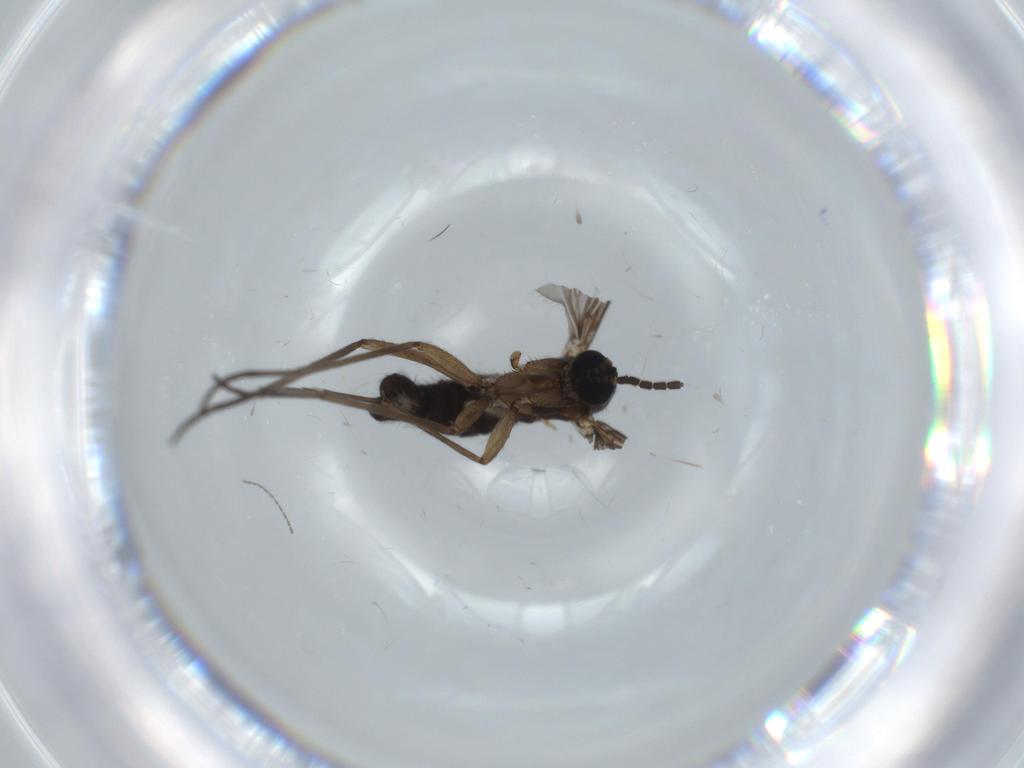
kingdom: Animalia
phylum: Arthropoda
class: Insecta
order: Diptera
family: Sciaridae
